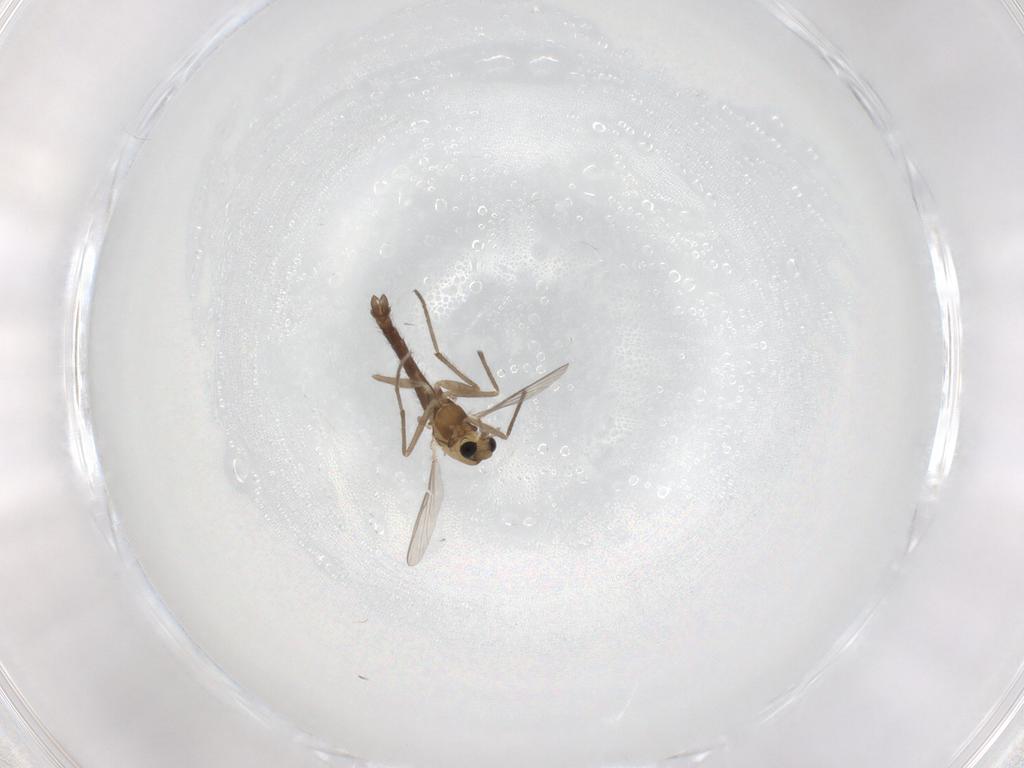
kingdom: Animalia
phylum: Arthropoda
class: Insecta
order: Diptera
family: Chironomidae
